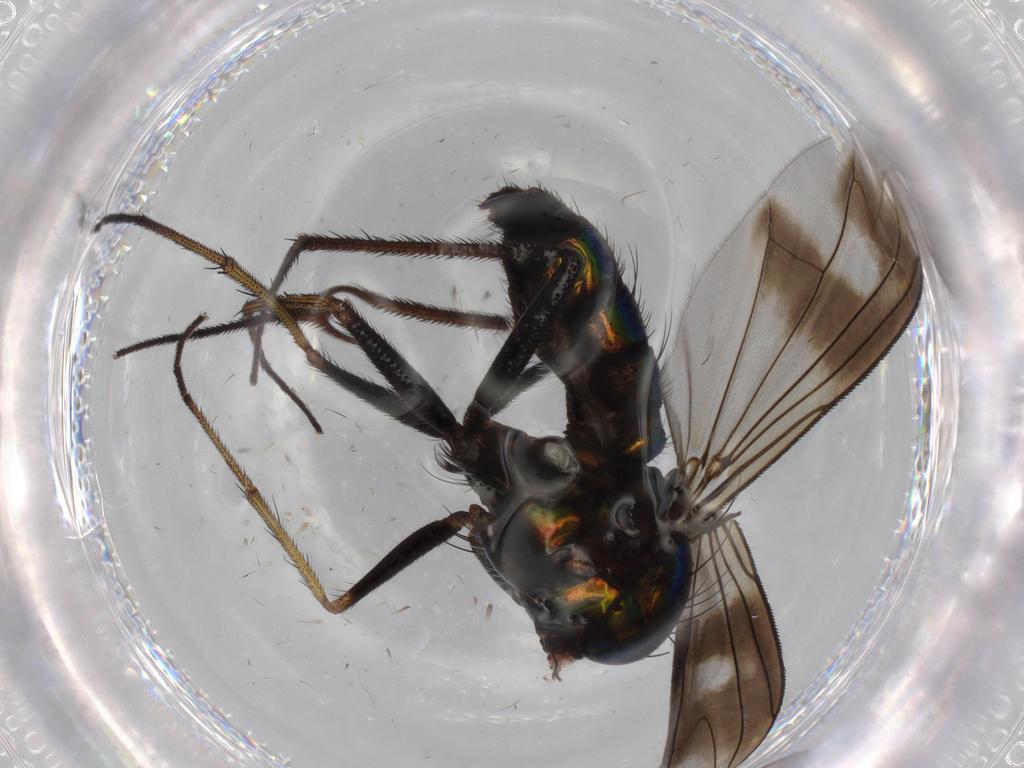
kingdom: Animalia
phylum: Arthropoda
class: Insecta
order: Diptera
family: Dolichopodidae
